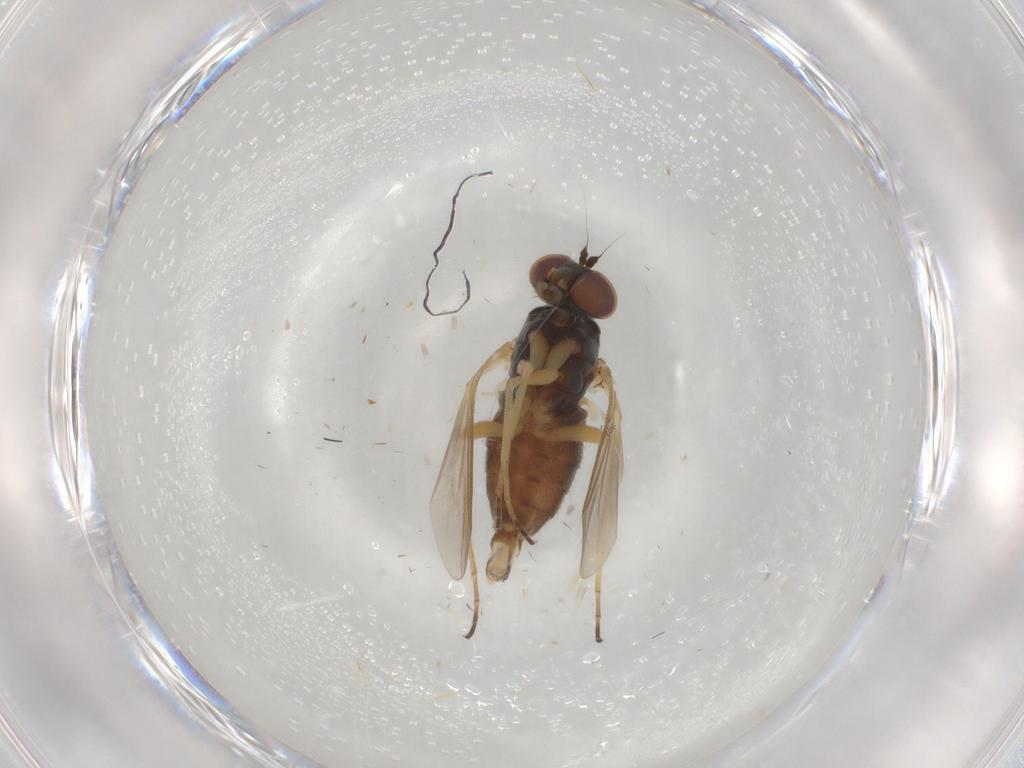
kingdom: Animalia
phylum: Arthropoda
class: Insecta
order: Diptera
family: Dolichopodidae
